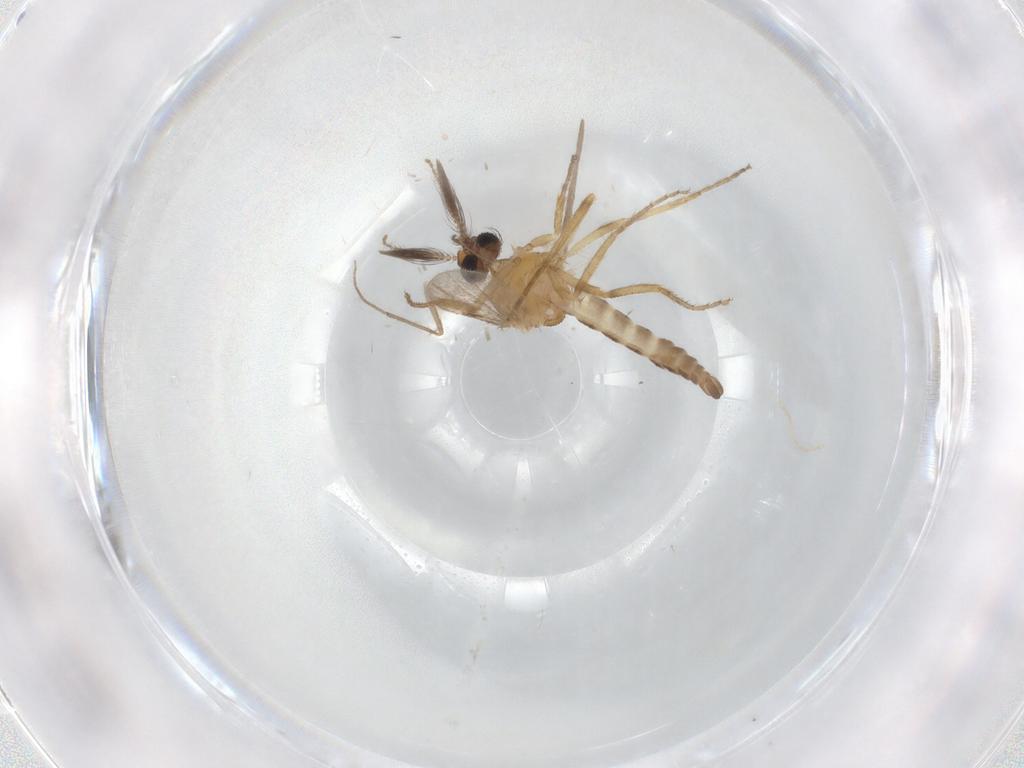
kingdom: Animalia
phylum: Arthropoda
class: Insecta
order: Diptera
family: Ceratopogonidae
